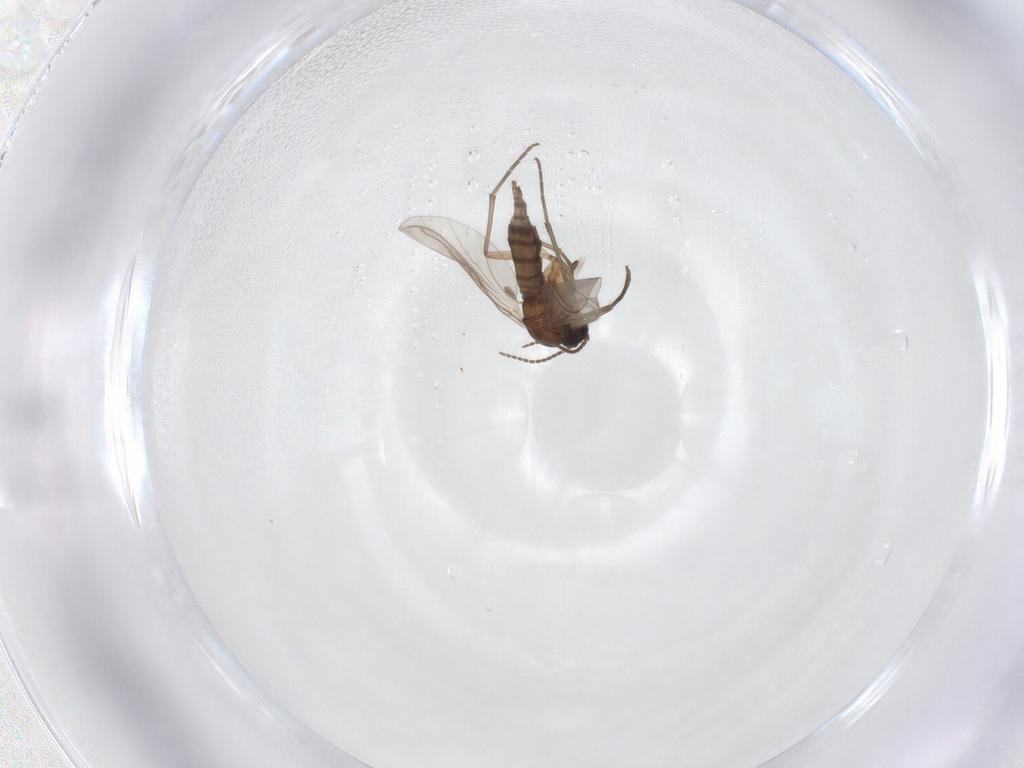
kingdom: Animalia
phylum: Arthropoda
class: Insecta
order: Diptera
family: Sciaridae
